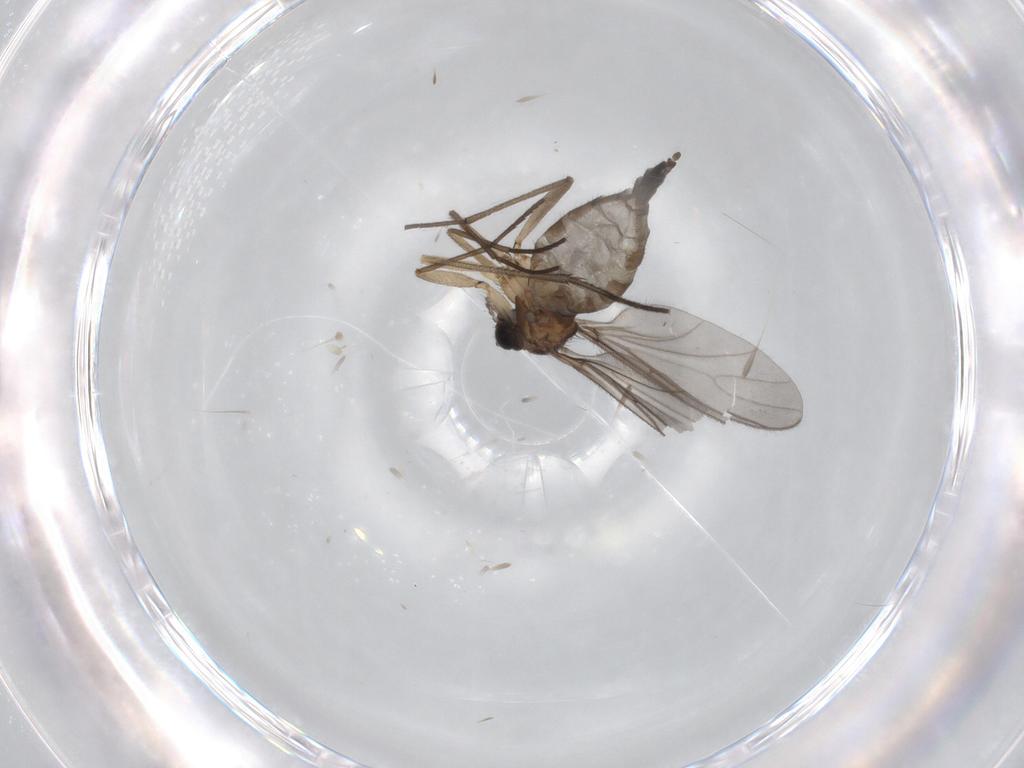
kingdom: Animalia
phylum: Arthropoda
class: Insecta
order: Diptera
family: Sciaridae
